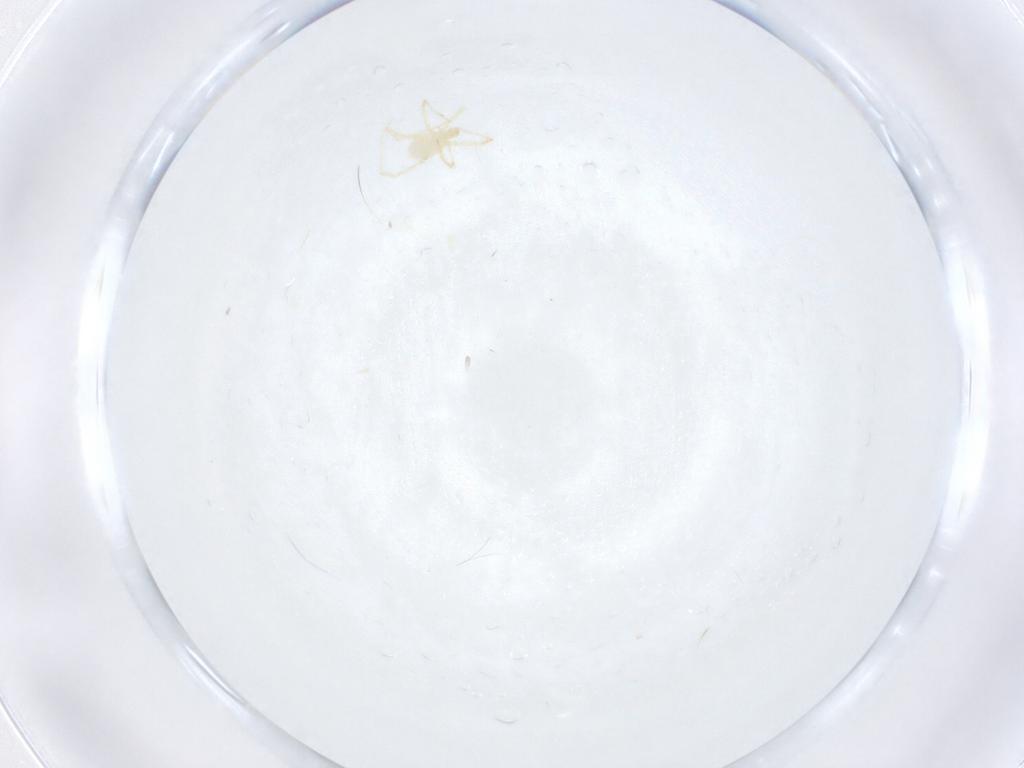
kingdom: Animalia
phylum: Arthropoda
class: Arachnida
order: Trombidiformes
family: Erythraeidae
